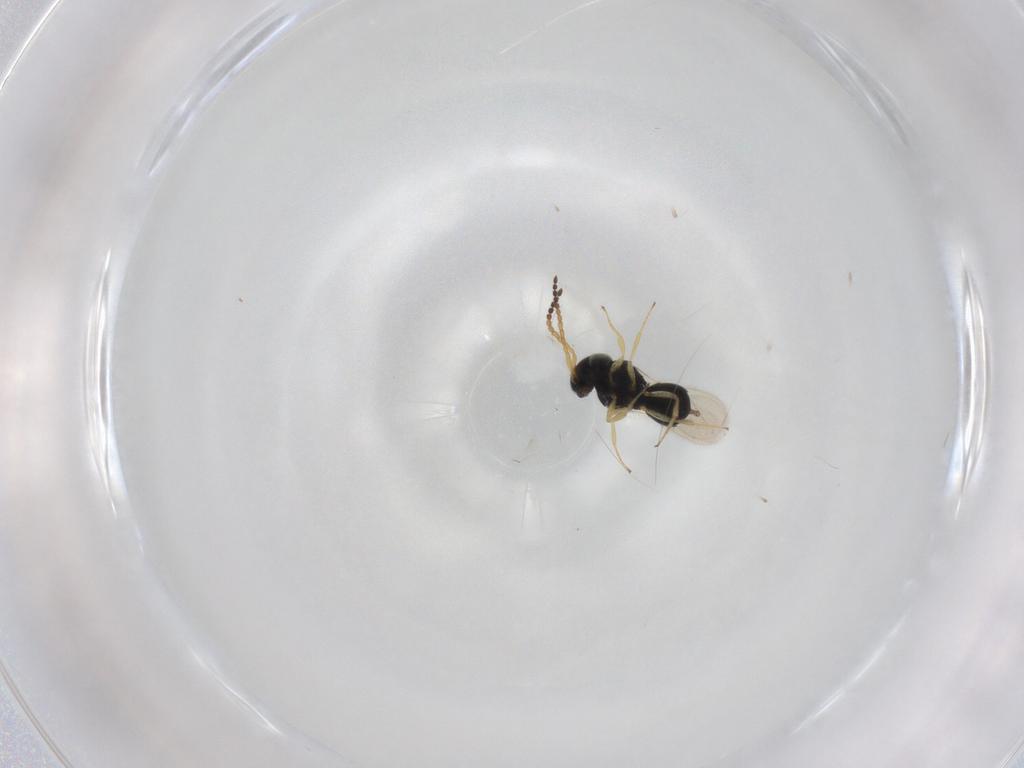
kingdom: Animalia
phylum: Arthropoda
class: Insecta
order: Hymenoptera
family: Scelionidae
